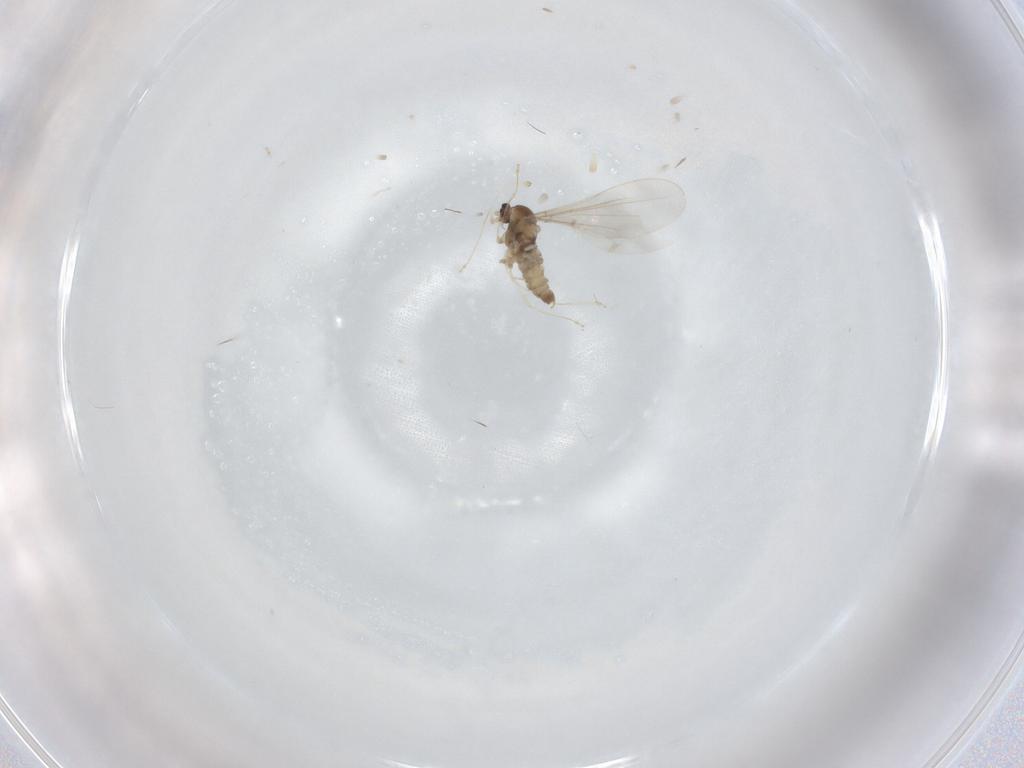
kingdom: Animalia
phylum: Arthropoda
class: Insecta
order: Diptera
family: Cecidomyiidae
